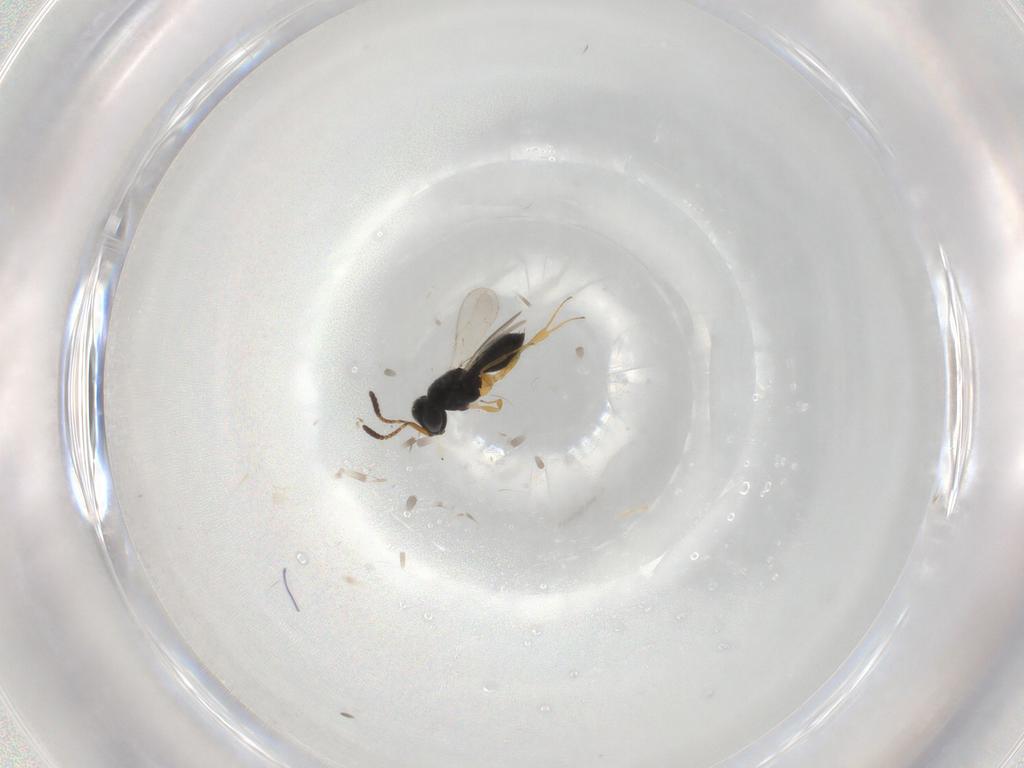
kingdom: Animalia
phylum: Arthropoda
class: Insecta
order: Hymenoptera
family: Scelionidae
